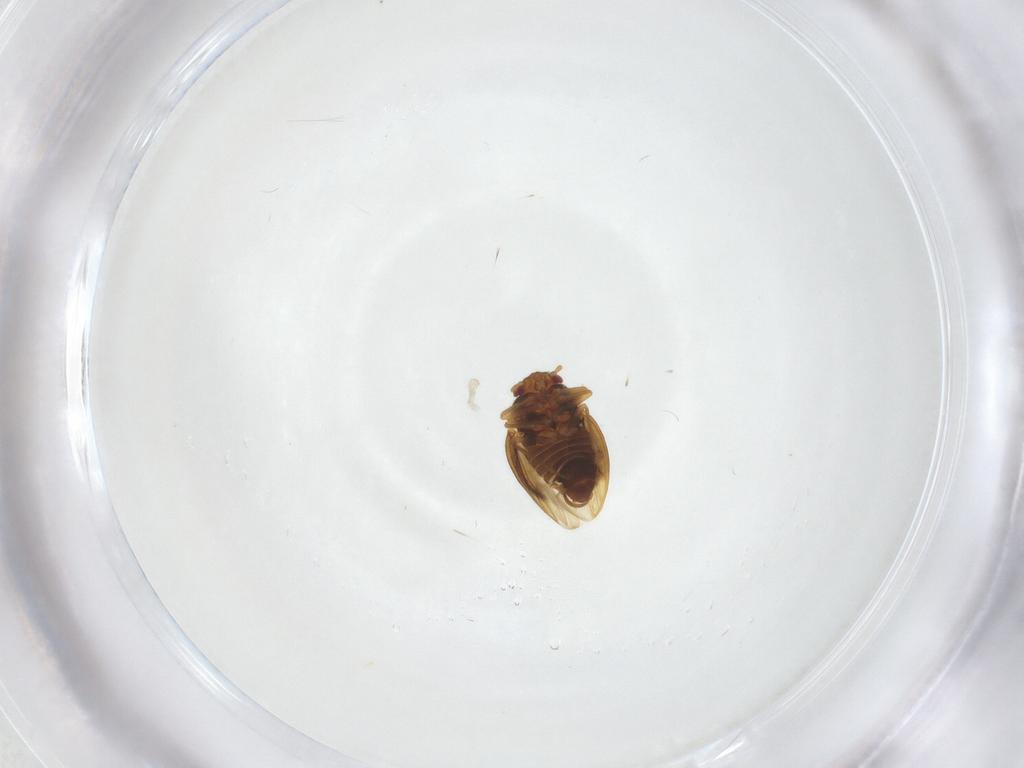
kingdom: Animalia
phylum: Arthropoda
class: Insecta
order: Hemiptera
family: Schizopteridae
